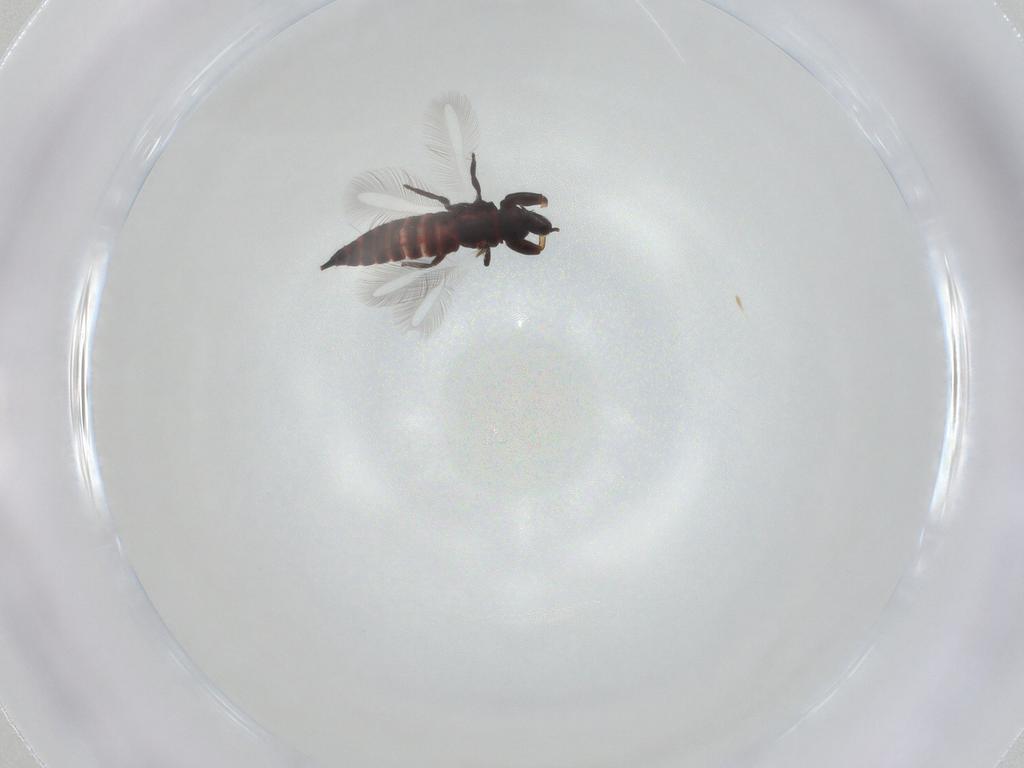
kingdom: Animalia
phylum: Arthropoda
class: Insecta
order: Thysanoptera
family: Phlaeothripidae
